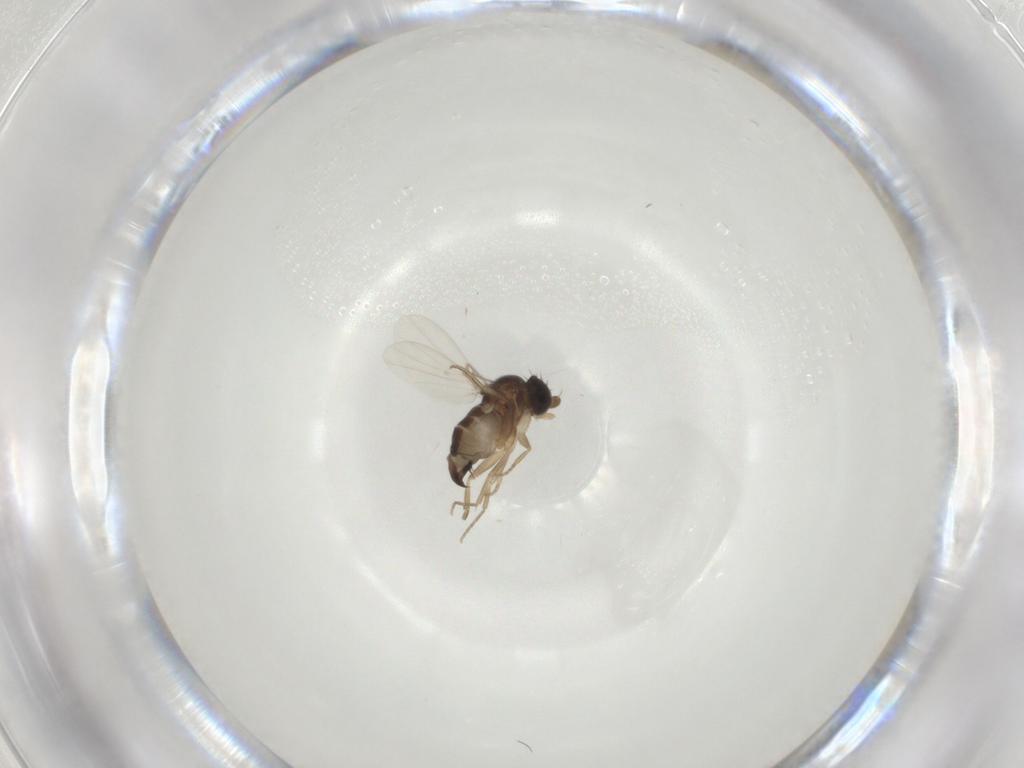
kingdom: Animalia
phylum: Arthropoda
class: Insecta
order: Diptera
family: Phoridae
